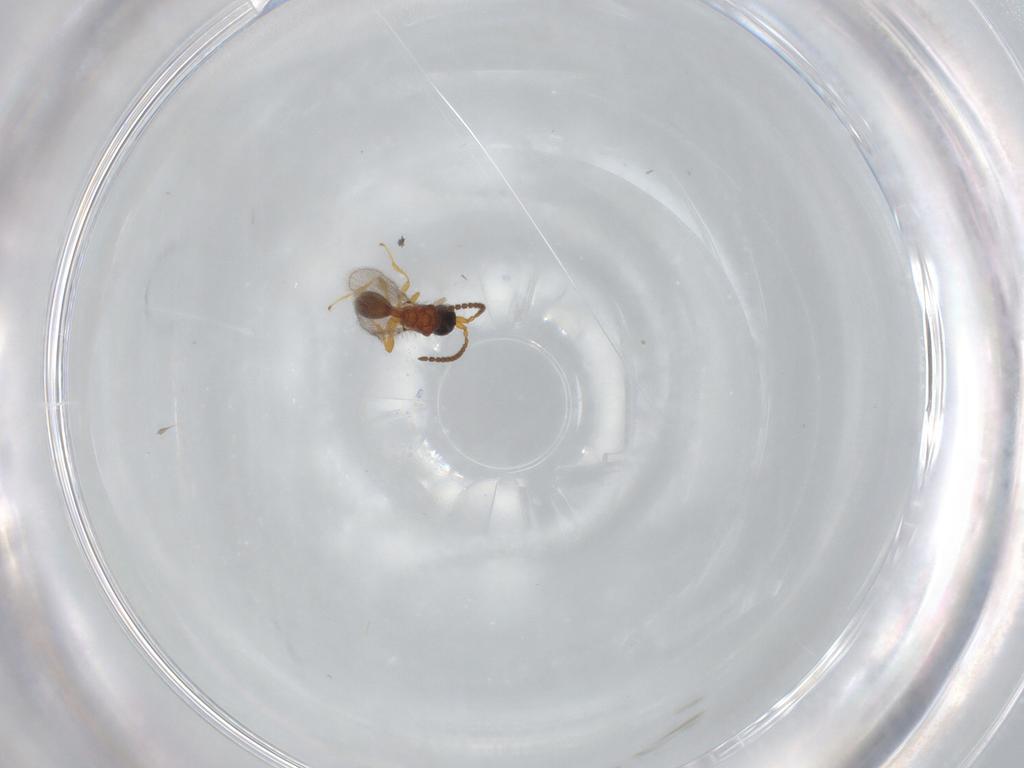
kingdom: Animalia
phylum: Arthropoda
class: Insecta
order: Hymenoptera
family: Diapriidae
